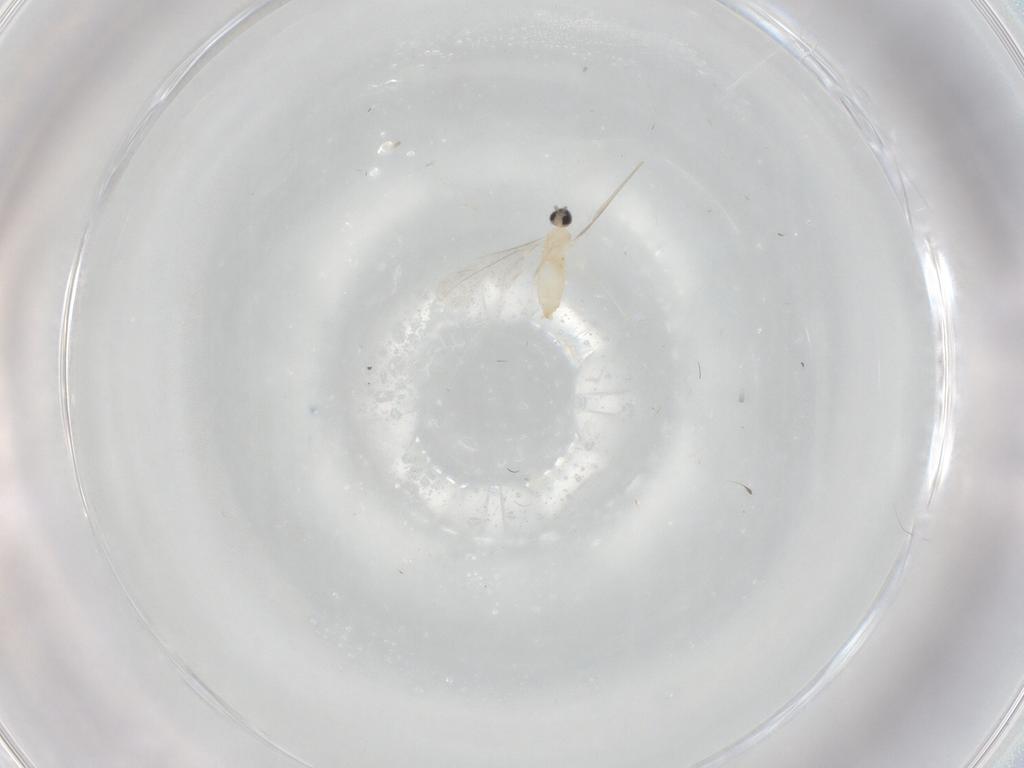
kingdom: Animalia
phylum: Arthropoda
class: Insecta
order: Diptera
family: Cecidomyiidae
